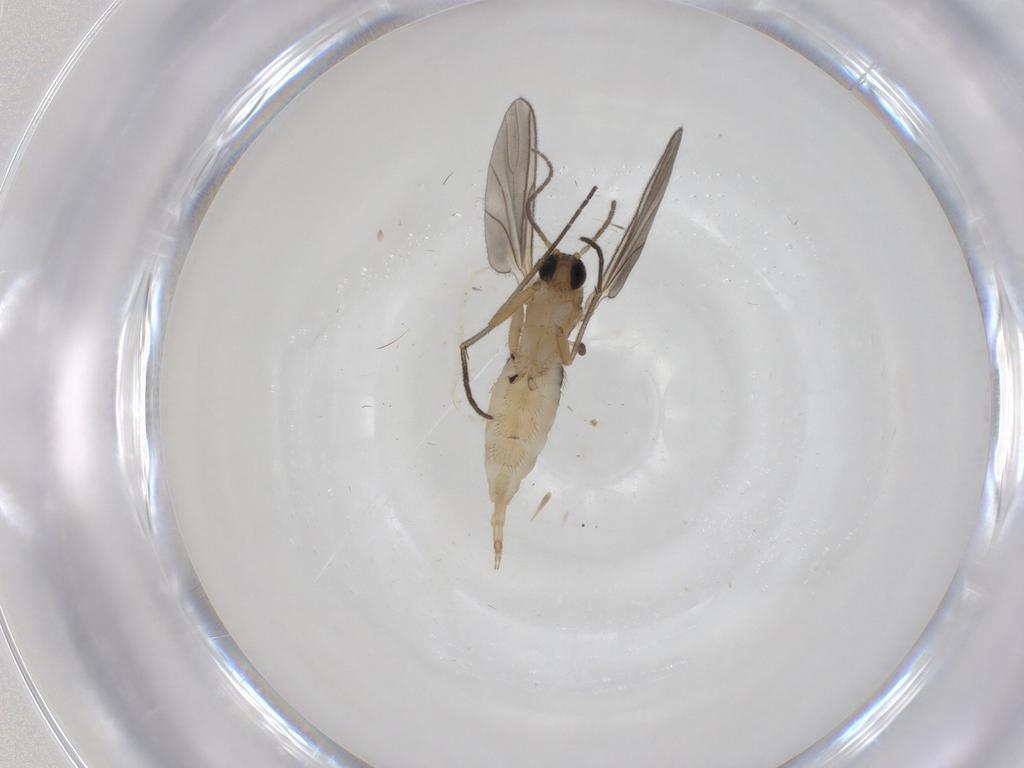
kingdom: Animalia
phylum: Arthropoda
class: Insecta
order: Diptera
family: Sciaridae
